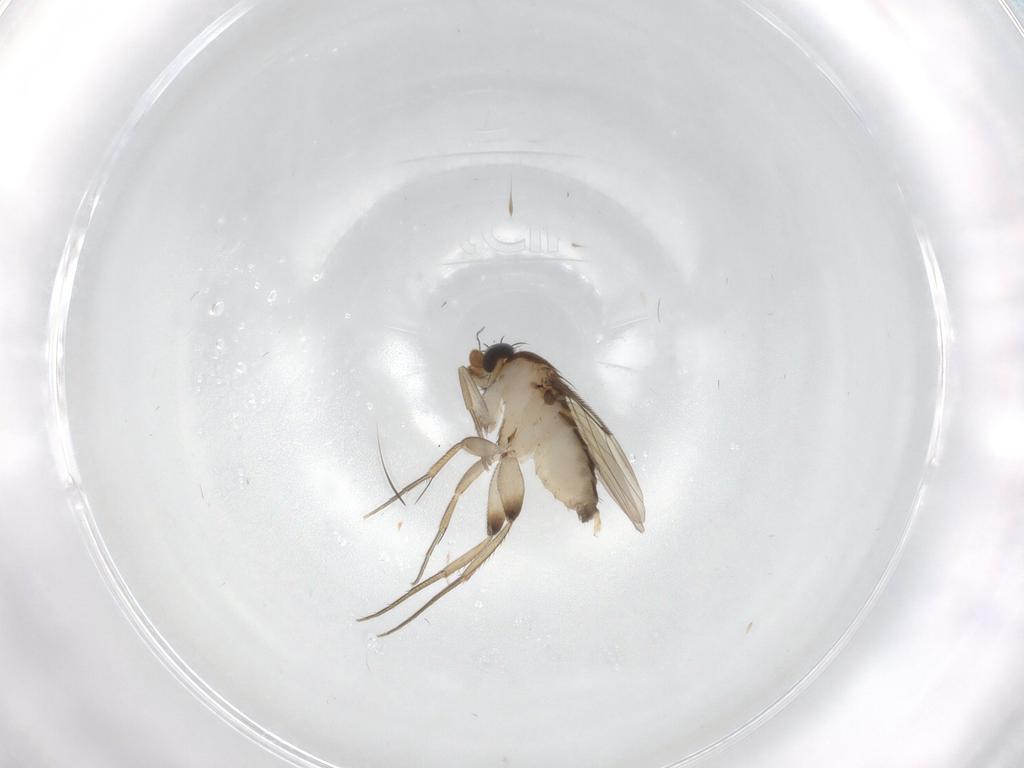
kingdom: Animalia
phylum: Arthropoda
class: Insecta
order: Diptera
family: Phoridae
